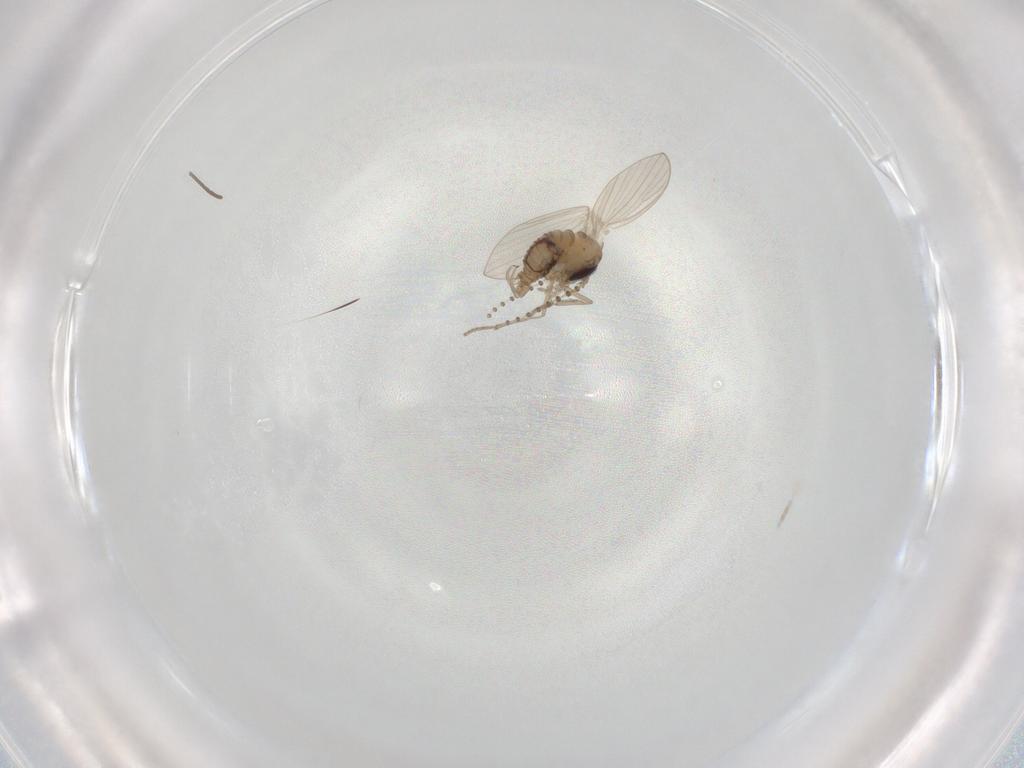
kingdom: Animalia
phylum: Arthropoda
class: Insecta
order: Diptera
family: Cecidomyiidae
